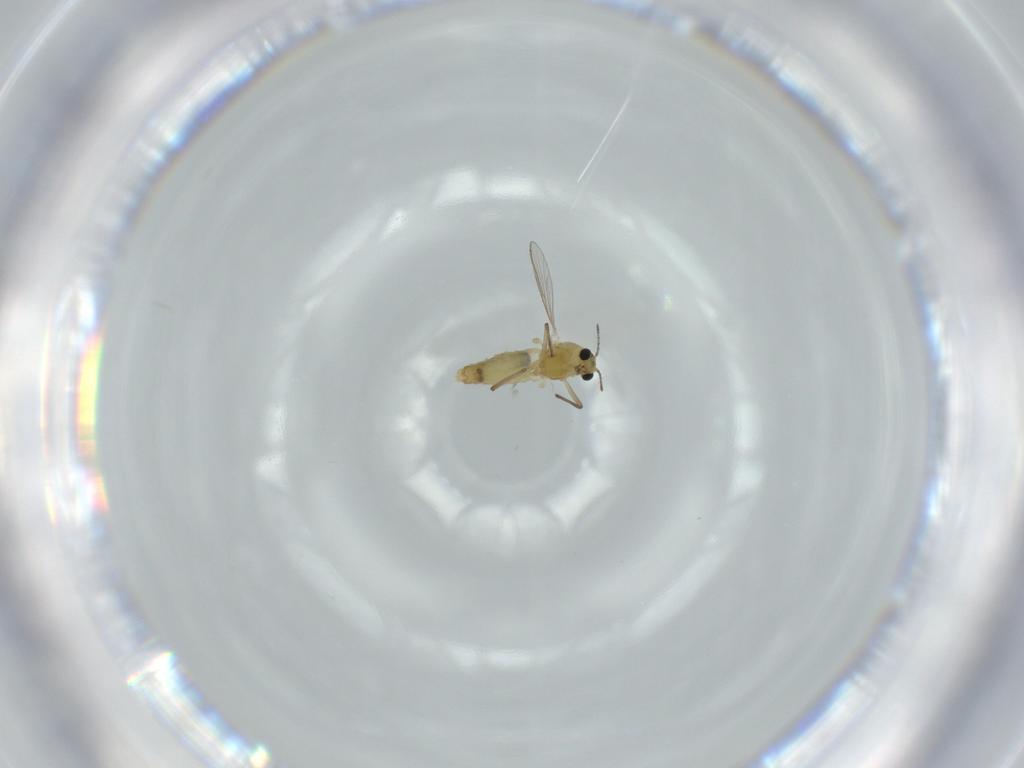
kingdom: Animalia
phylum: Arthropoda
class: Insecta
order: Diptera
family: Chironomidae
